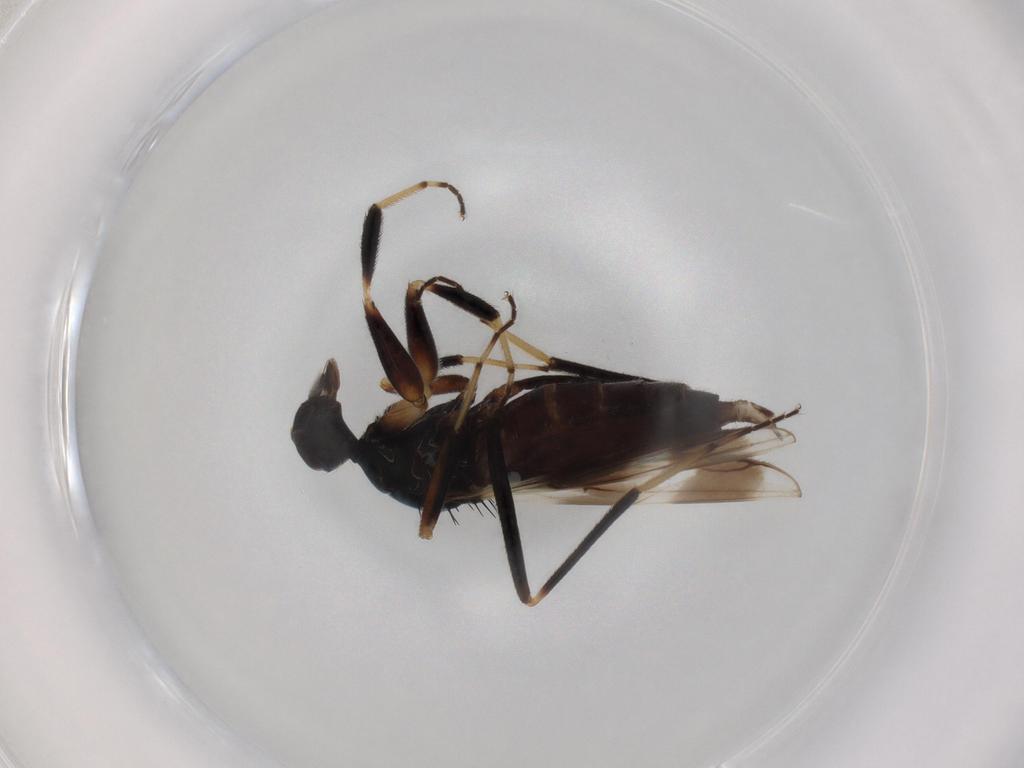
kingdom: Animalia
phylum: Arthropoda
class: Insecta
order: Diptera
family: Hybotidae
